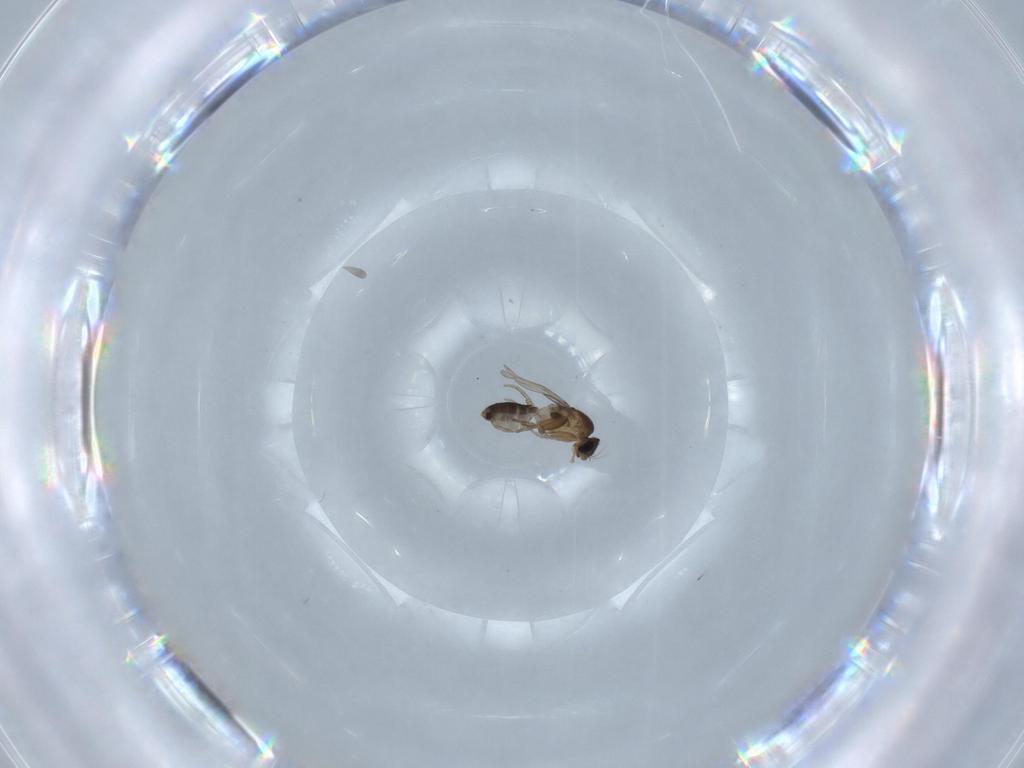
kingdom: Animalia
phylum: Arthropoda
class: Insecta
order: Diptera
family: Phoridae
